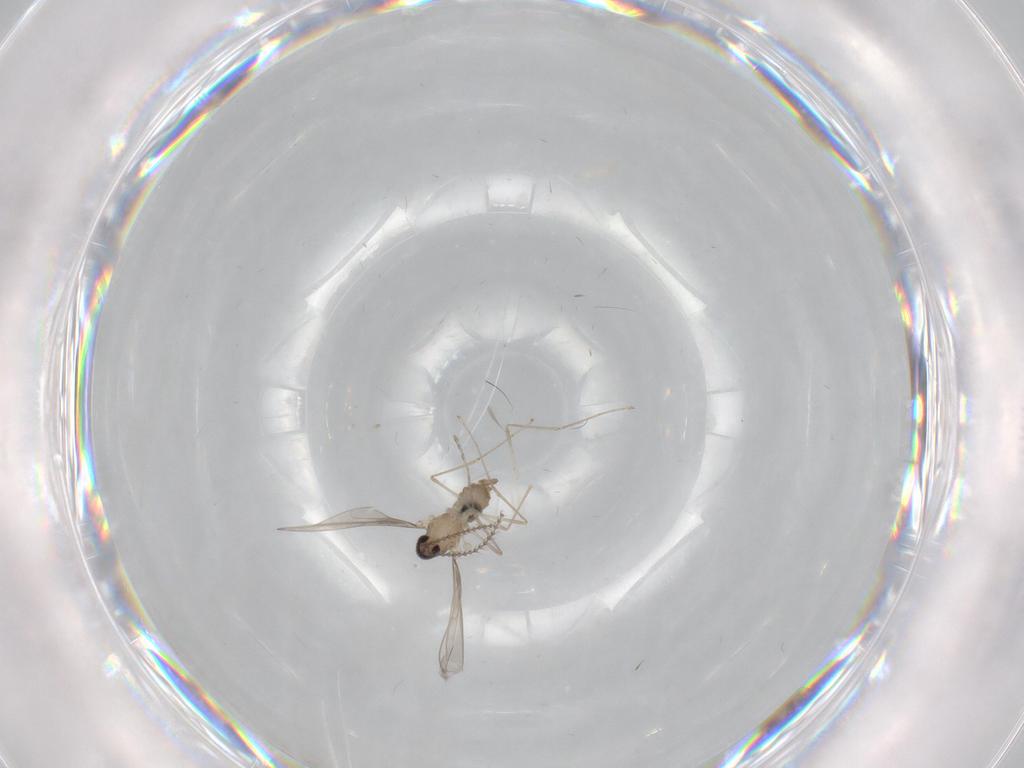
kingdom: Animalia
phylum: Arthropoda
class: Insecta
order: Diptera
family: Cecidomyiidae
